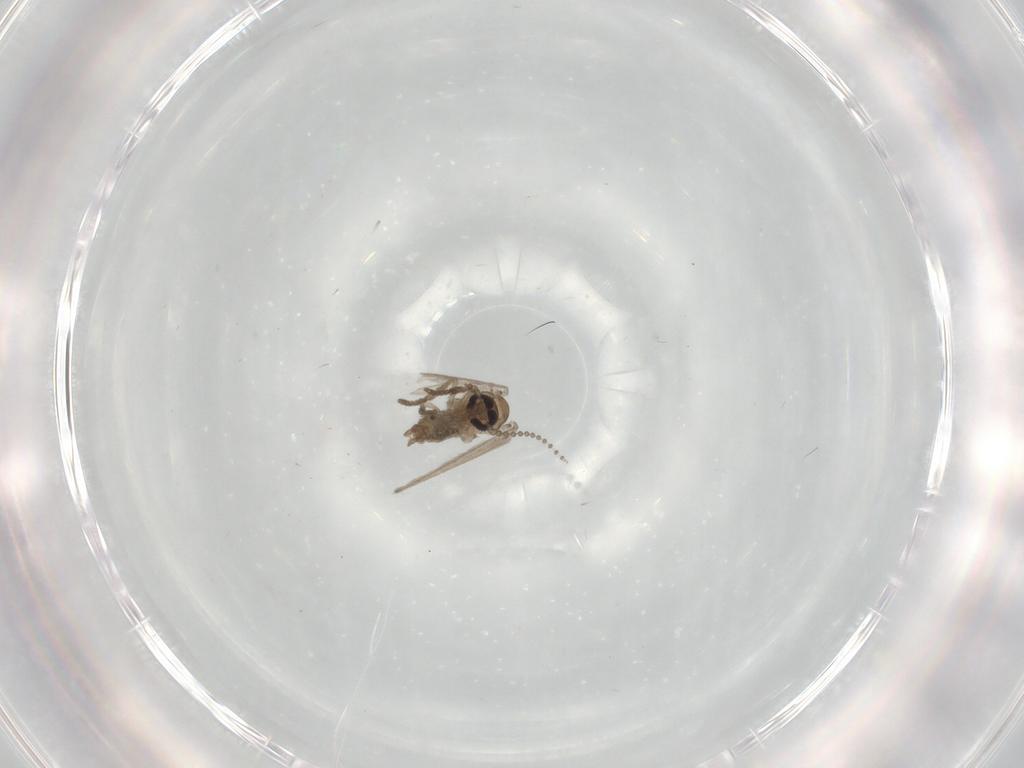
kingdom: Animalia
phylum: Arthropoda
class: Insecta
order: Diptera
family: Psychodidae
